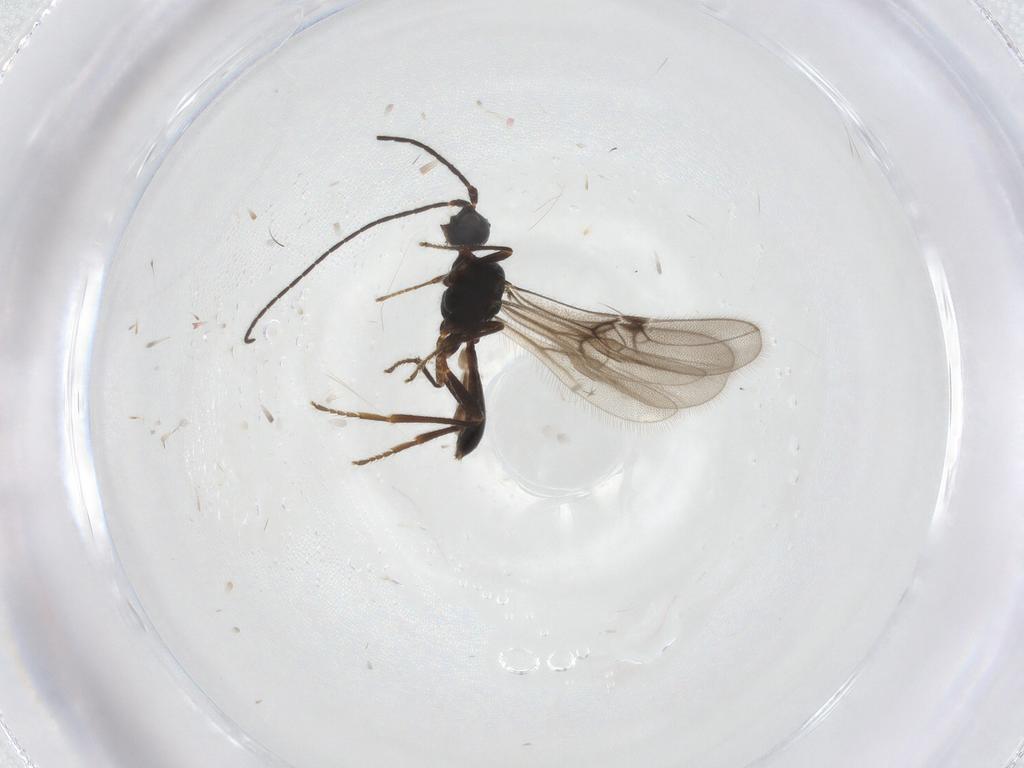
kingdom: Animalia
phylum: Arthropoda
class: Insecta
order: Hymenoptera
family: Braconidae
